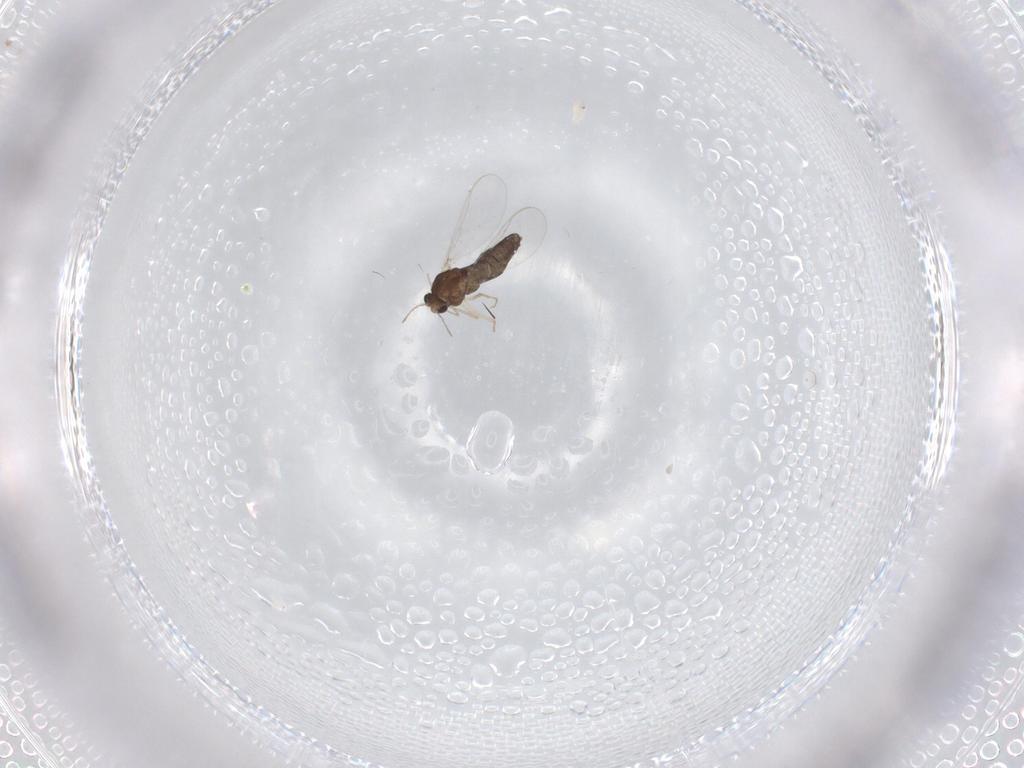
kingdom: Animalia
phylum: Arthropoda
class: Insecta
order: Diptera
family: Chironomidae
